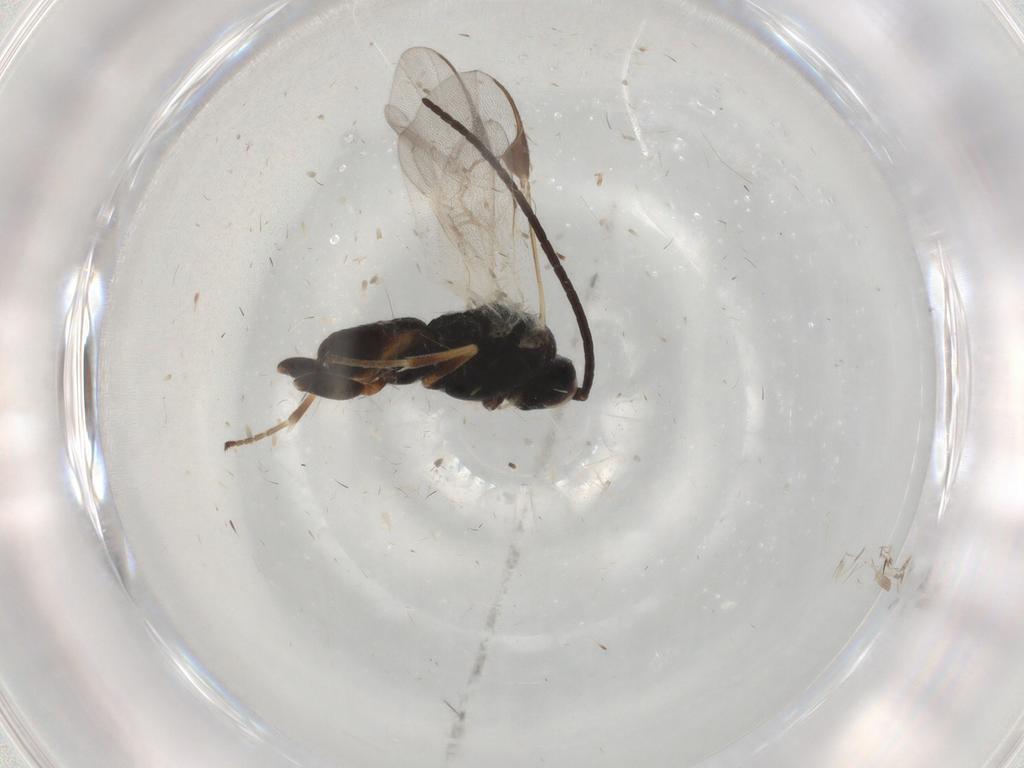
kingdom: Animalia
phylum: Arthropoda
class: Insecta
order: Hymenoptera
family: Braconidae
